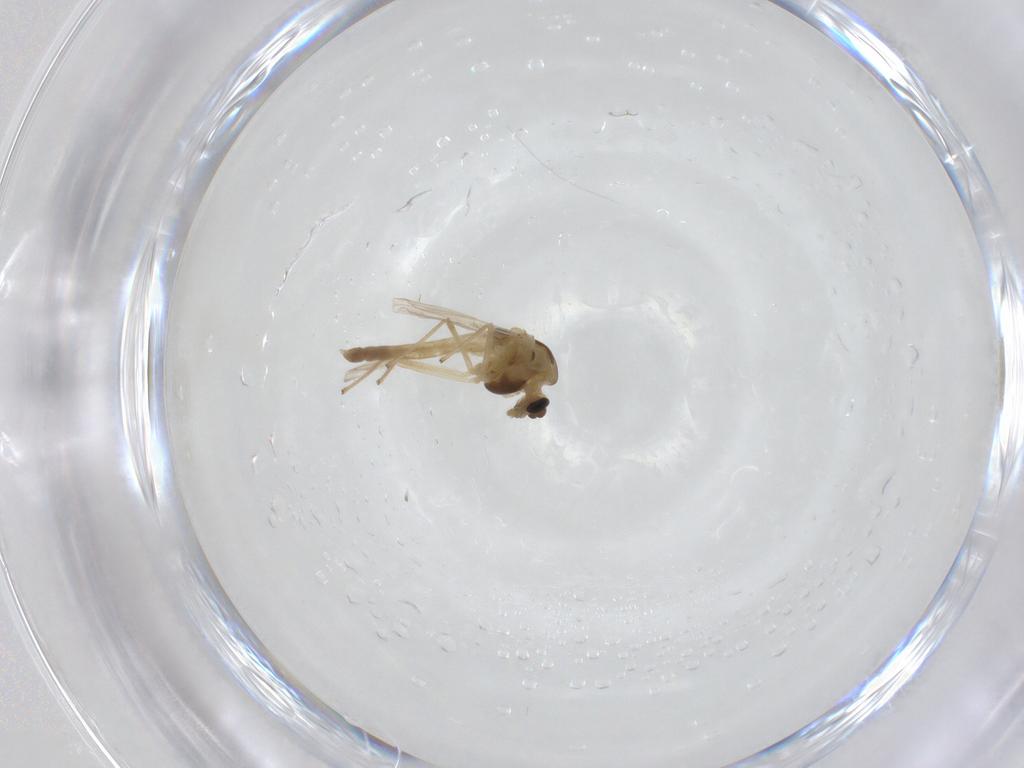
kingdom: Animalia
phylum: Arthropoda
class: Insecta
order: Diptera
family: Chironomidae
